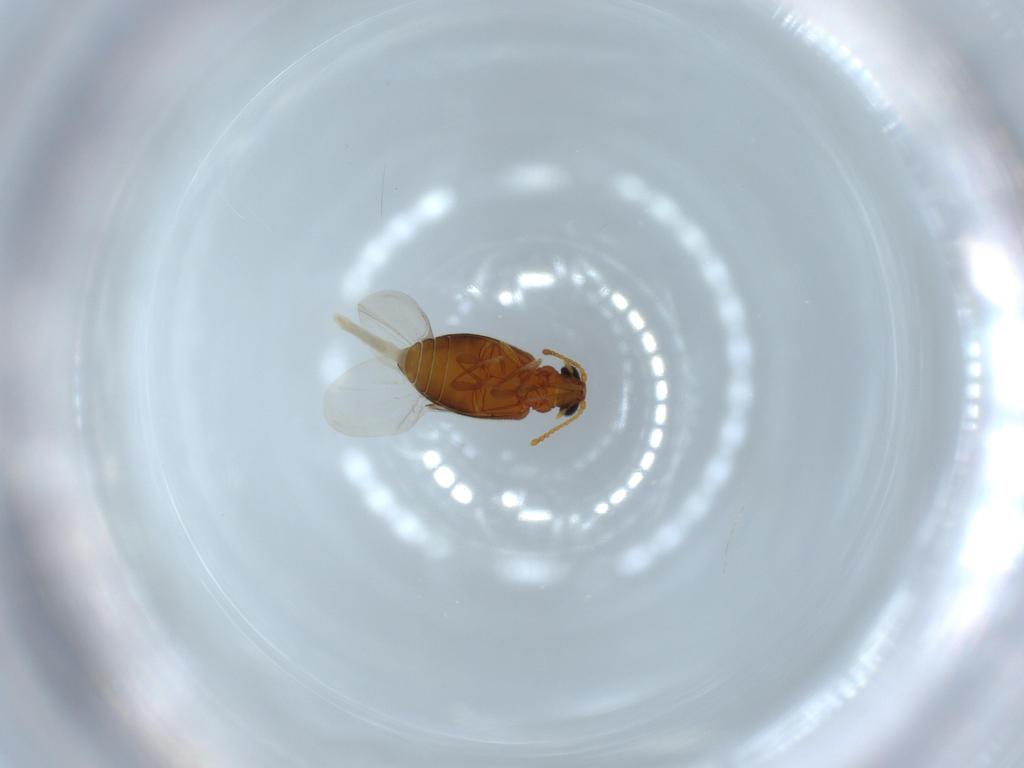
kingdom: Animalia
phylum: Arthropoda
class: Insecta
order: Coleoptera
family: Aderidae
